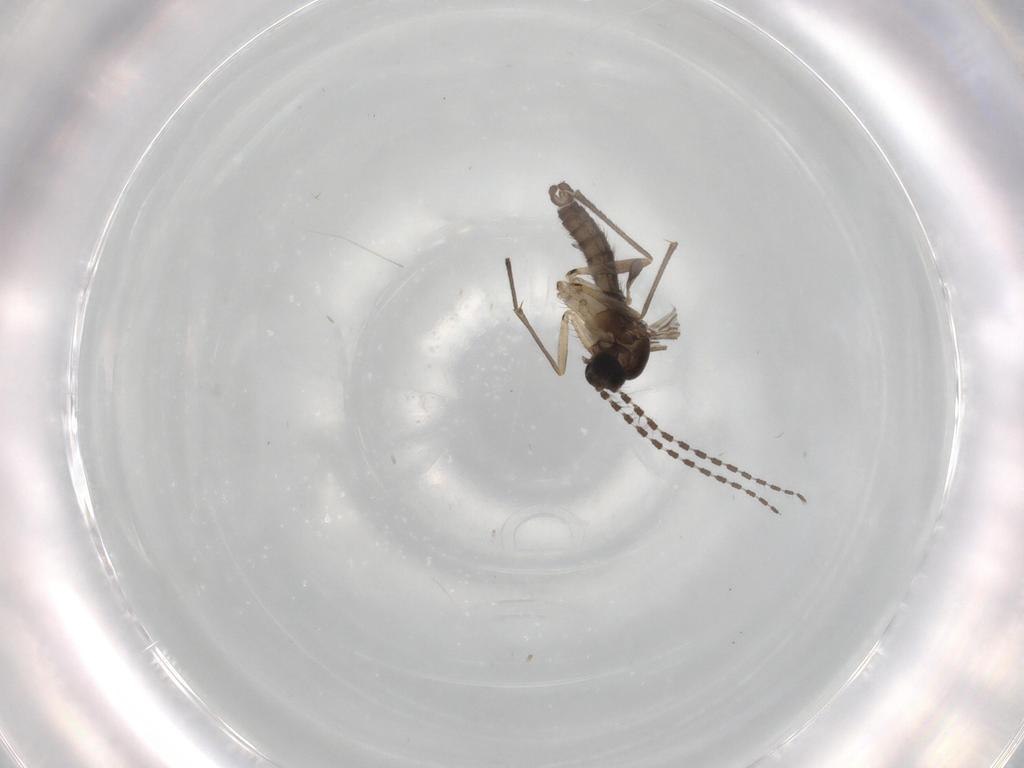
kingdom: Animalia
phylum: Arthropoda
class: Insecta
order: Diptera
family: Sciaridae
